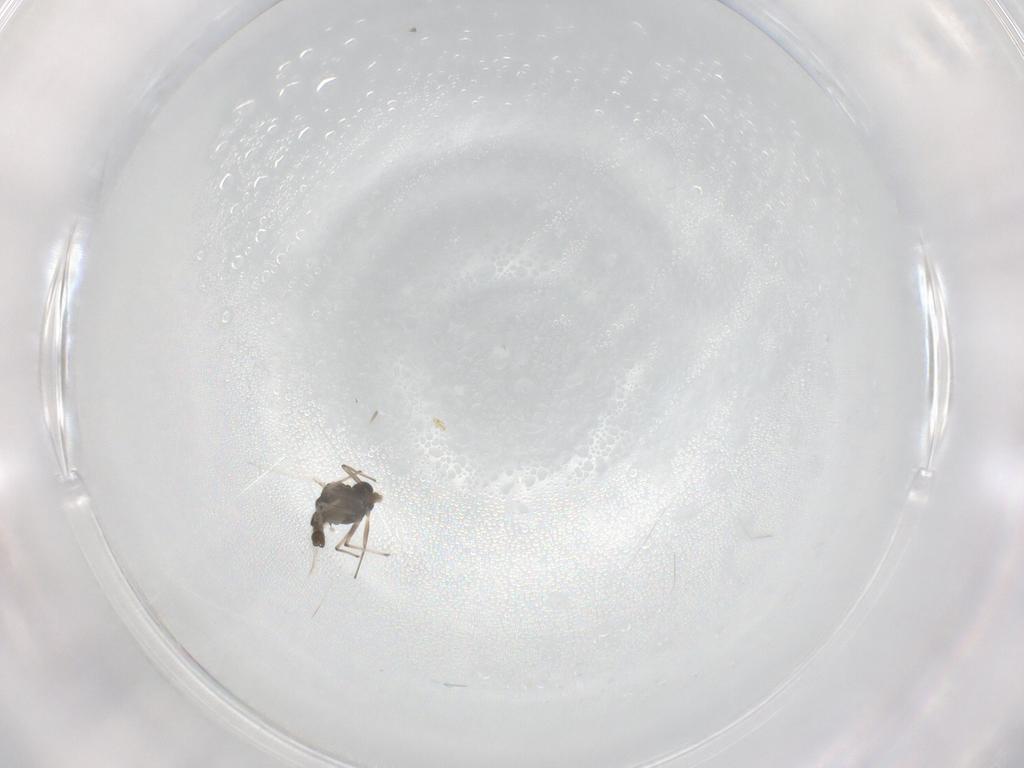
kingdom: Animalia
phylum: Arthropoda
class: Insecta
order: Diptera
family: Chironomidae
